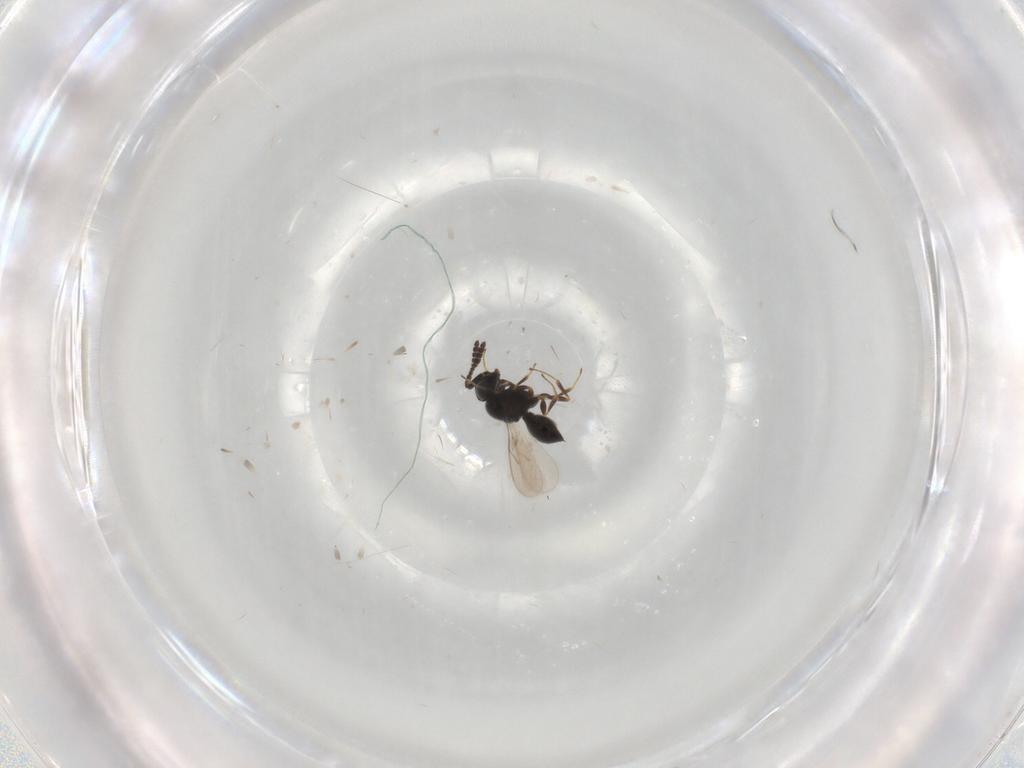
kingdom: Animalia
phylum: Arthropoda
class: Insecta
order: Hymenoptera
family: Scelionidae
